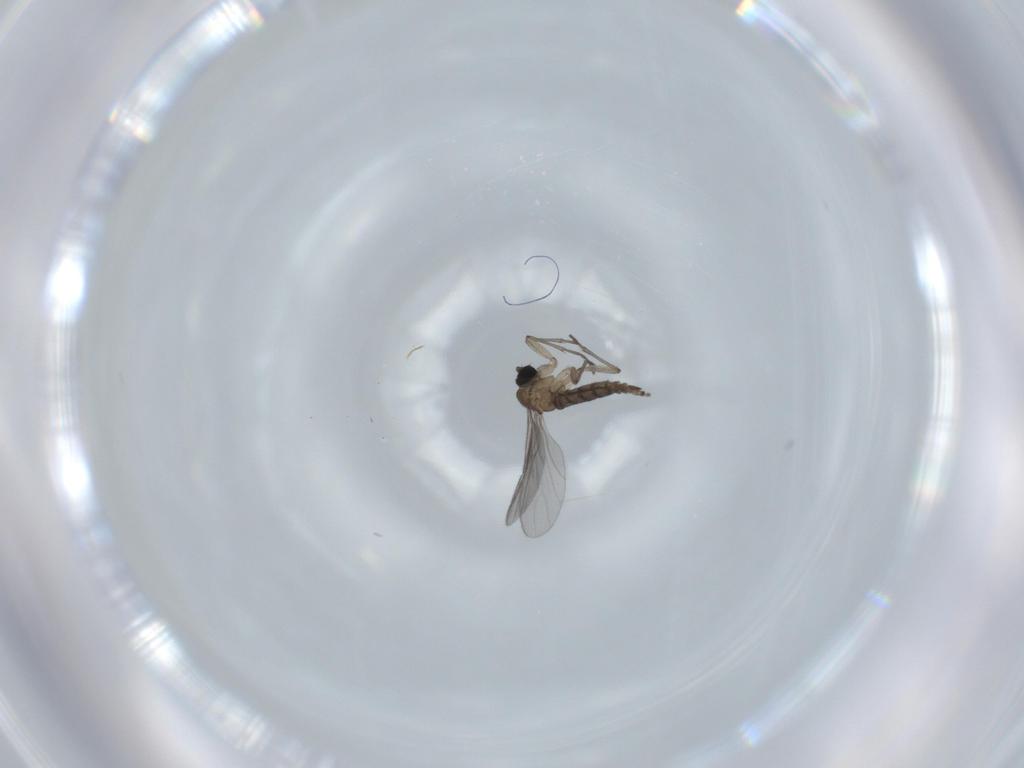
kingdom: Animalia
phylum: Arthropoda
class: Insecta
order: Diptera
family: Sciaridae
